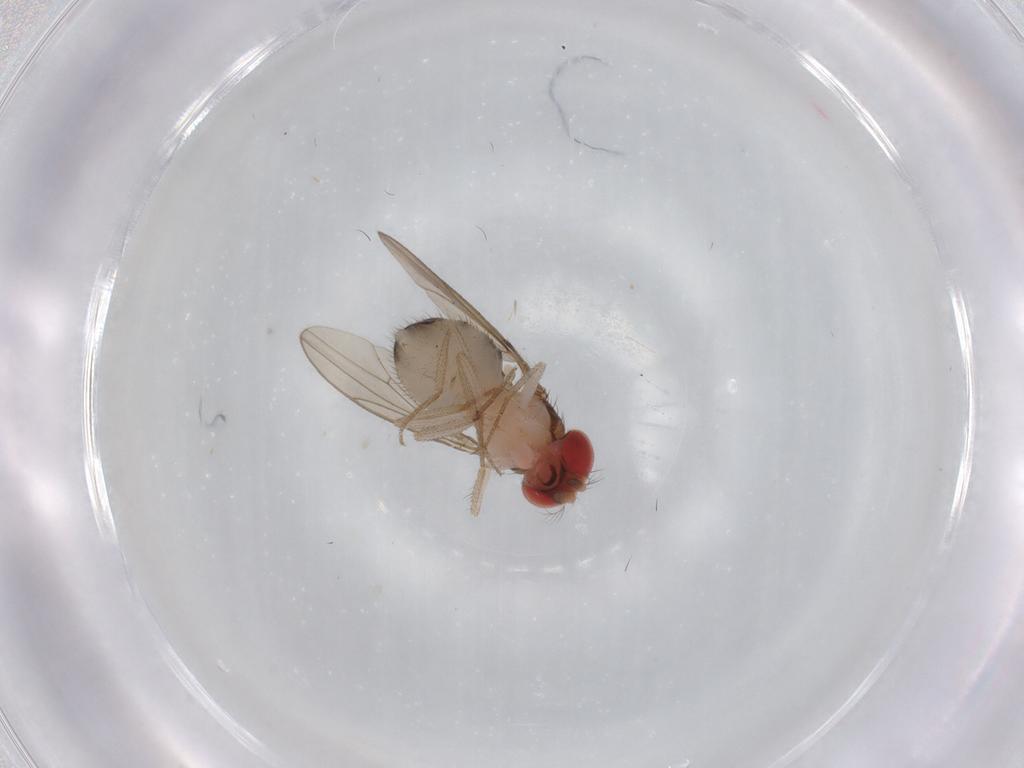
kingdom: Animalia
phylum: Arthropoda
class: Insecta
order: Diptera
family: Drosophilidae
